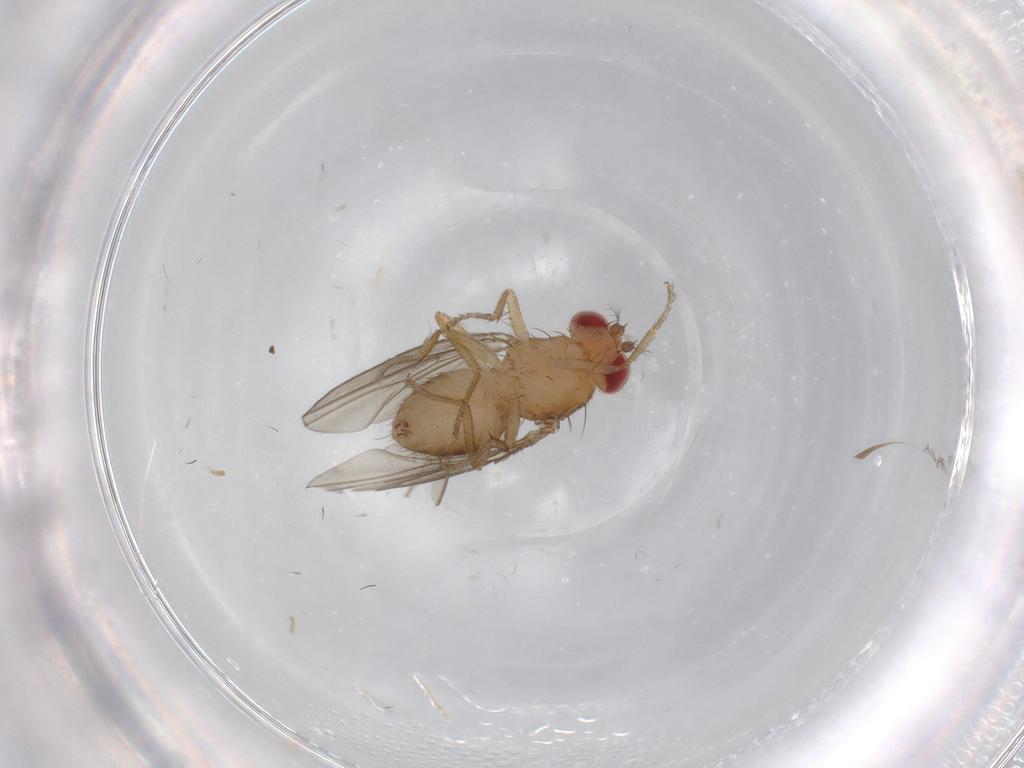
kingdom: Animalia
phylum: Arthropoda
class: Insecta
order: Diptera
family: Drosophilidae
